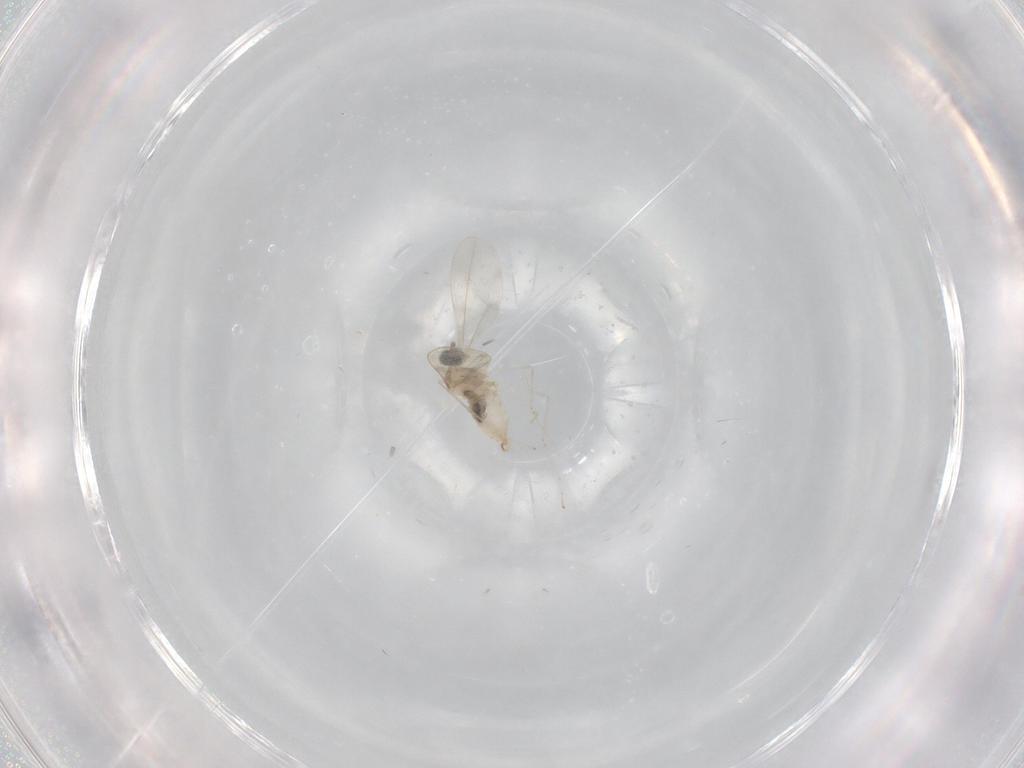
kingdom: Animalia
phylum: Arthropoda
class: Insecta
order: Diptera
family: Cecidomyiidae
